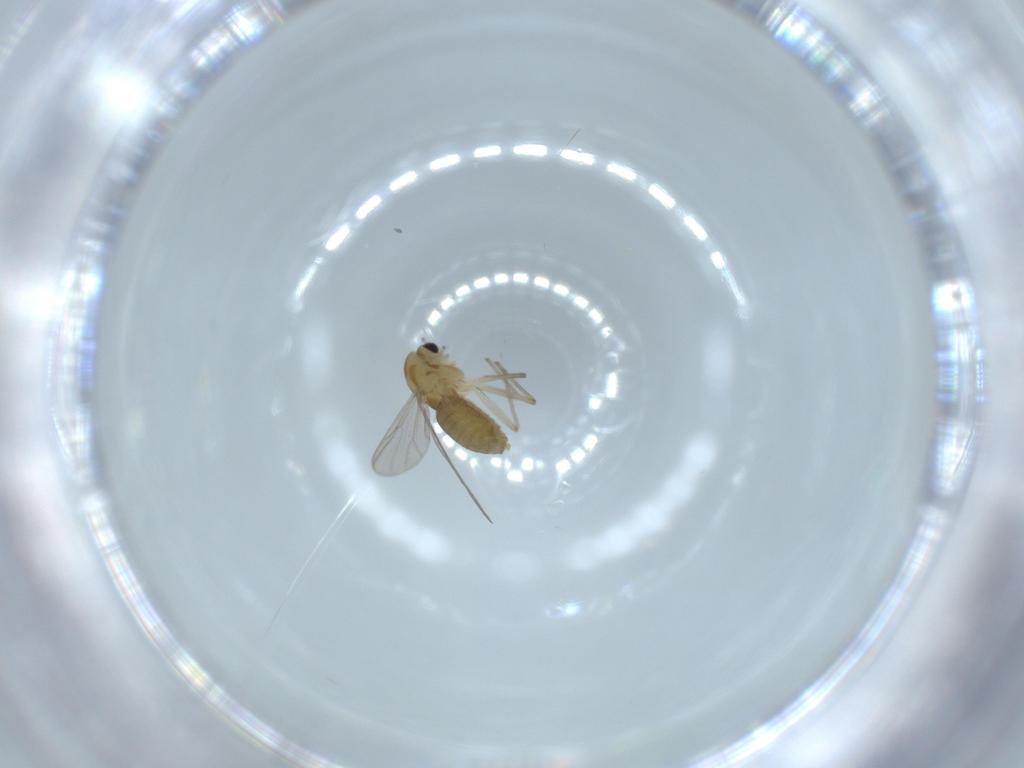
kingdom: Animalia
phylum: Arthropoda
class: Insecta
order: Diptera
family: Chironomidae
